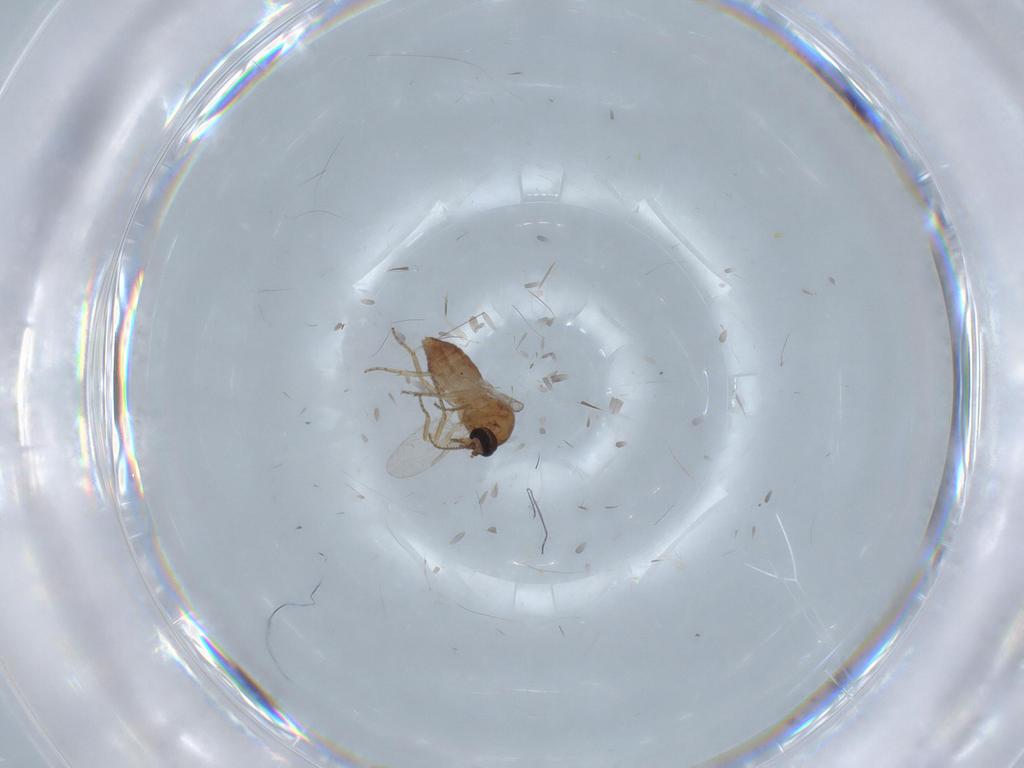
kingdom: Animalia
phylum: Arthropoda
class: Insecta
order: Diptera
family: Ceratopogonidae
